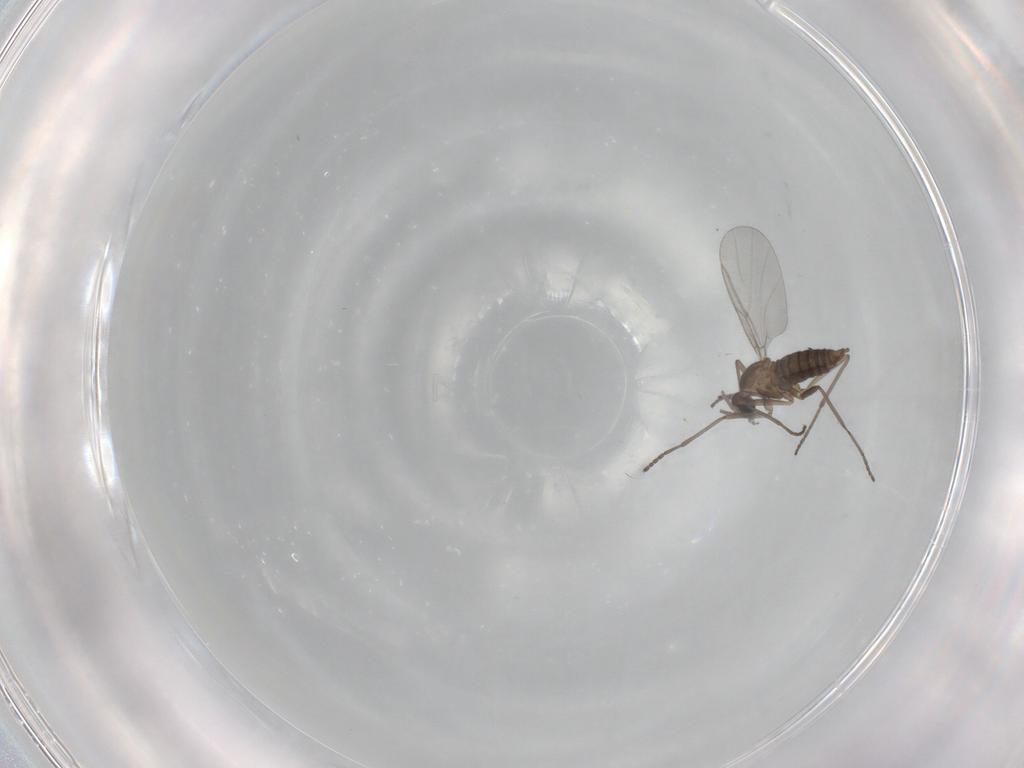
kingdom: Animalia
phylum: Arthropoda
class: Insecta
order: Diptera
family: Cecidomyiidae
